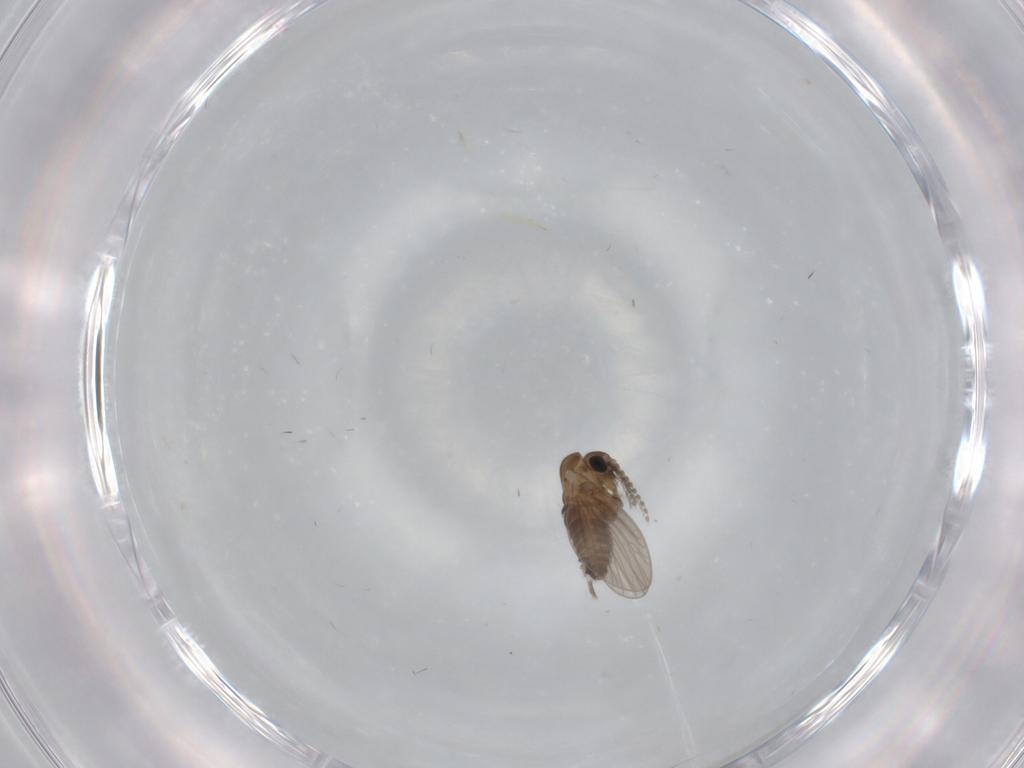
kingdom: Animalia
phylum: Arthropoda
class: Insecta
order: Diptera
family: Psychodidae
